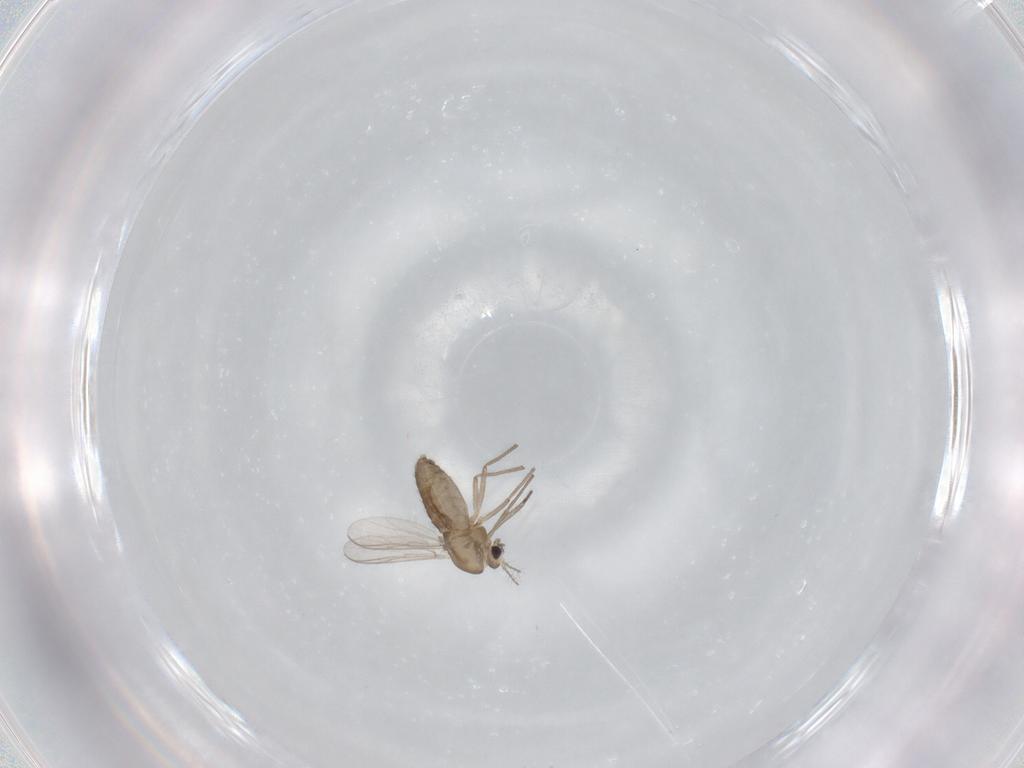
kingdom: Animalia
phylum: Arthropoda
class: Insecta
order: Diptera
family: Chironomidae
